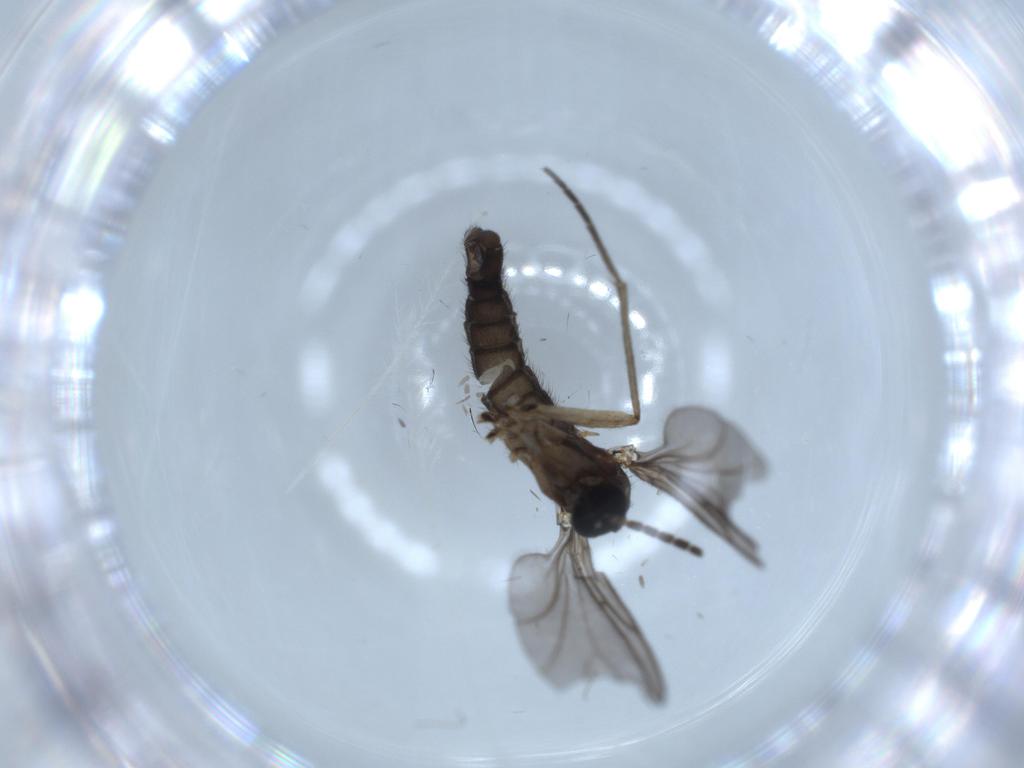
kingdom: Animalia
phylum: Arthropoda
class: Insecta
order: Diptera
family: Sciaridae
